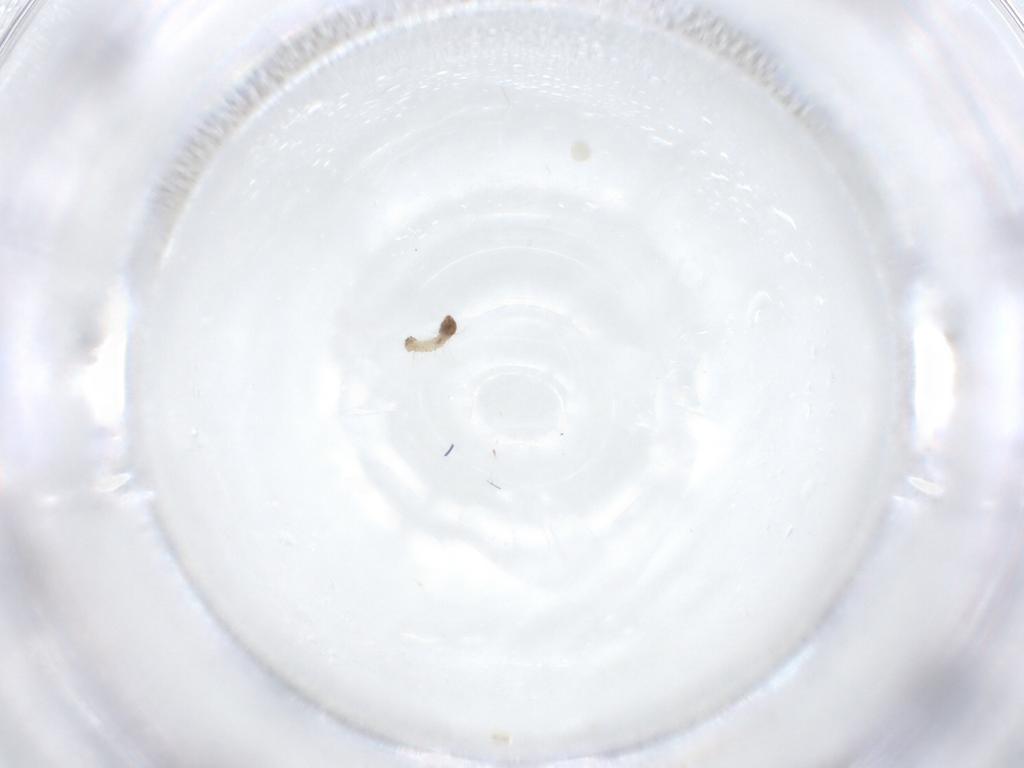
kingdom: Animalia
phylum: Arthropoda
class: Insecta
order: Lepidoptera
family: Erebidae
